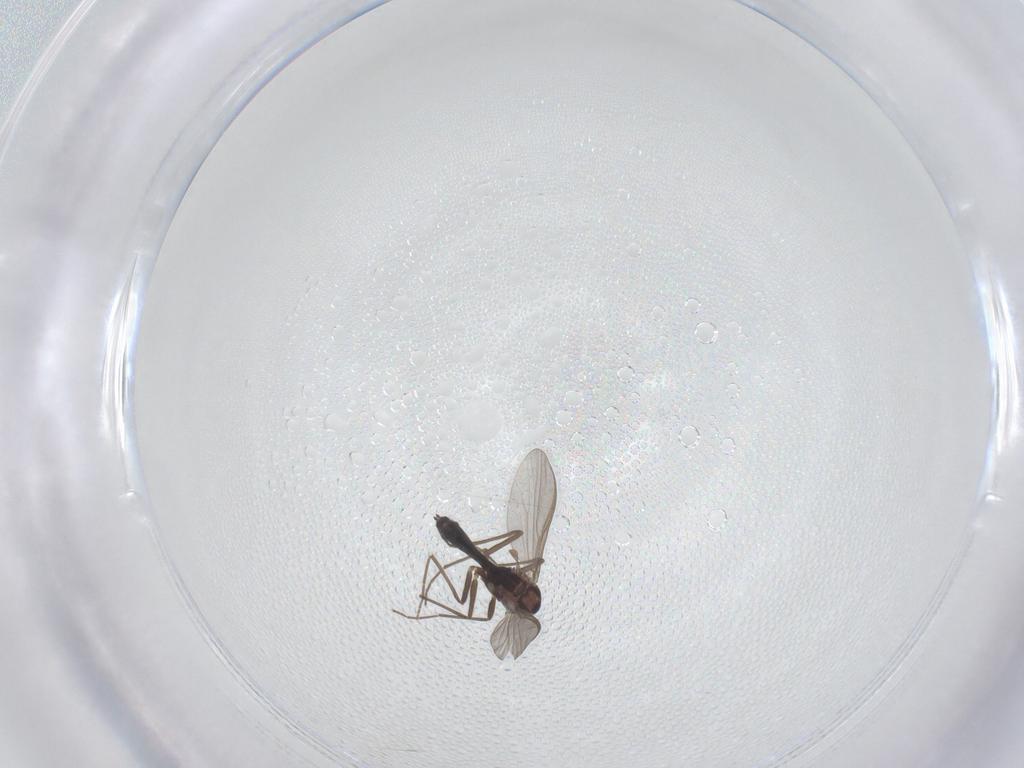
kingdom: Animalia
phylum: Arthropoda
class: Insecta
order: Diptera
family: Chironomidae
